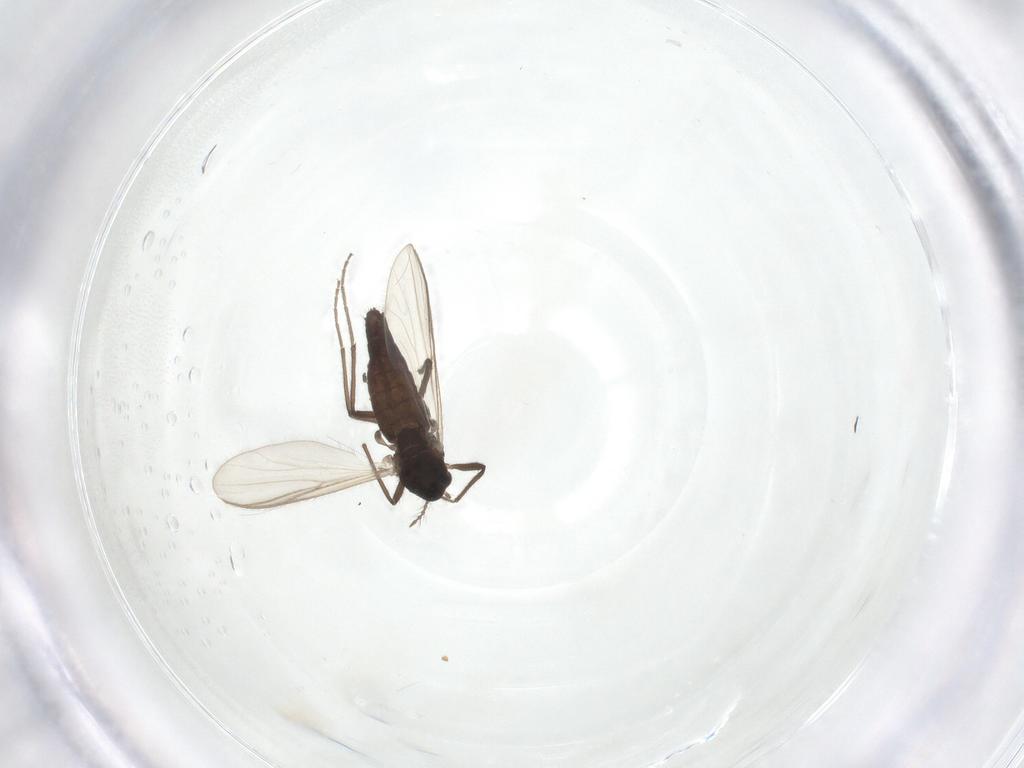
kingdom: Animalia
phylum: Arthropoda
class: Insecta
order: Diptera
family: Chironomidae
